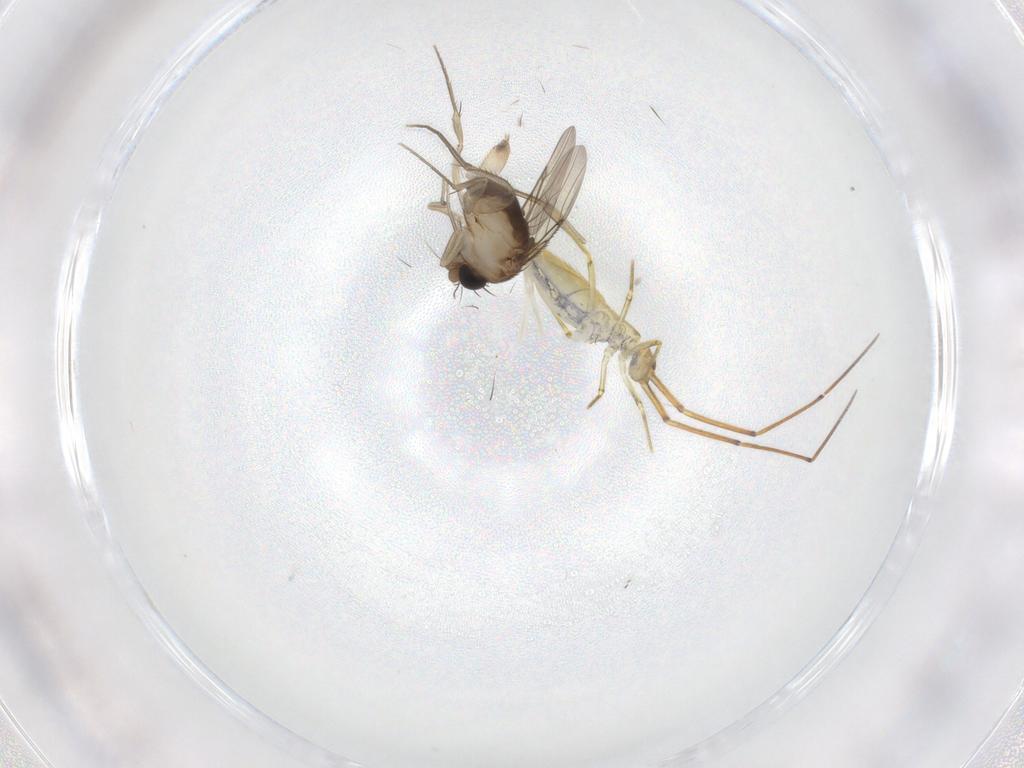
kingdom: Animalia
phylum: Arthropoda
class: Insecta
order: Diptera
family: Phoridae
